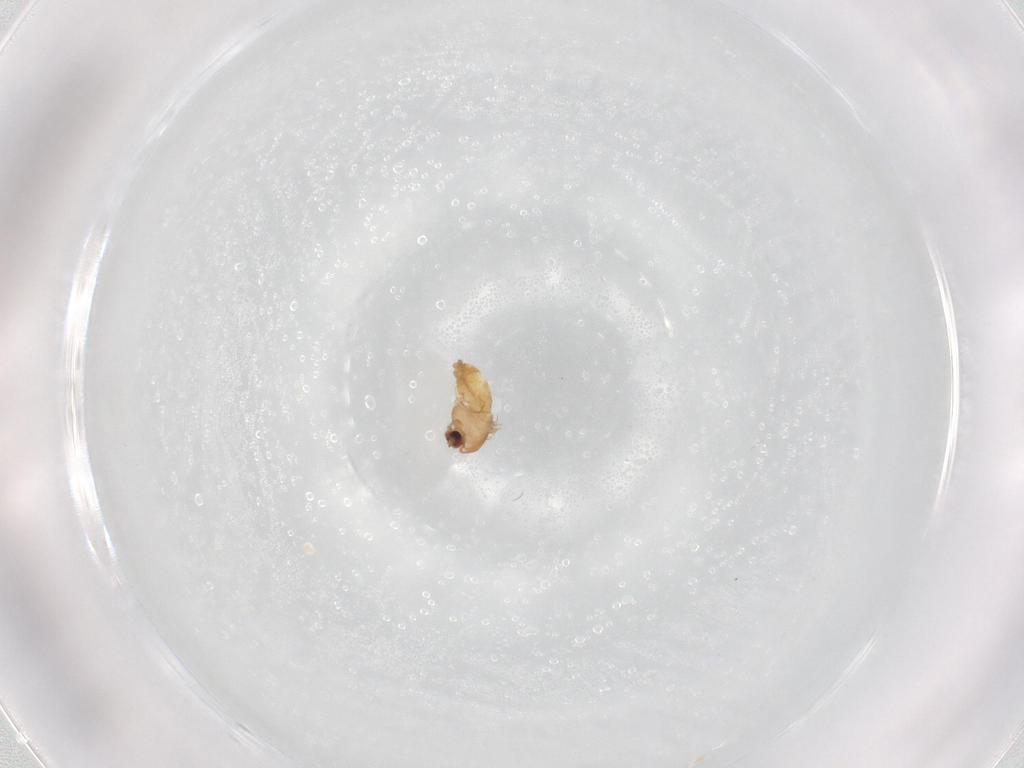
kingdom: Animalia
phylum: Arthropoda
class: Insecta
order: Diptera
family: Chironomidae
